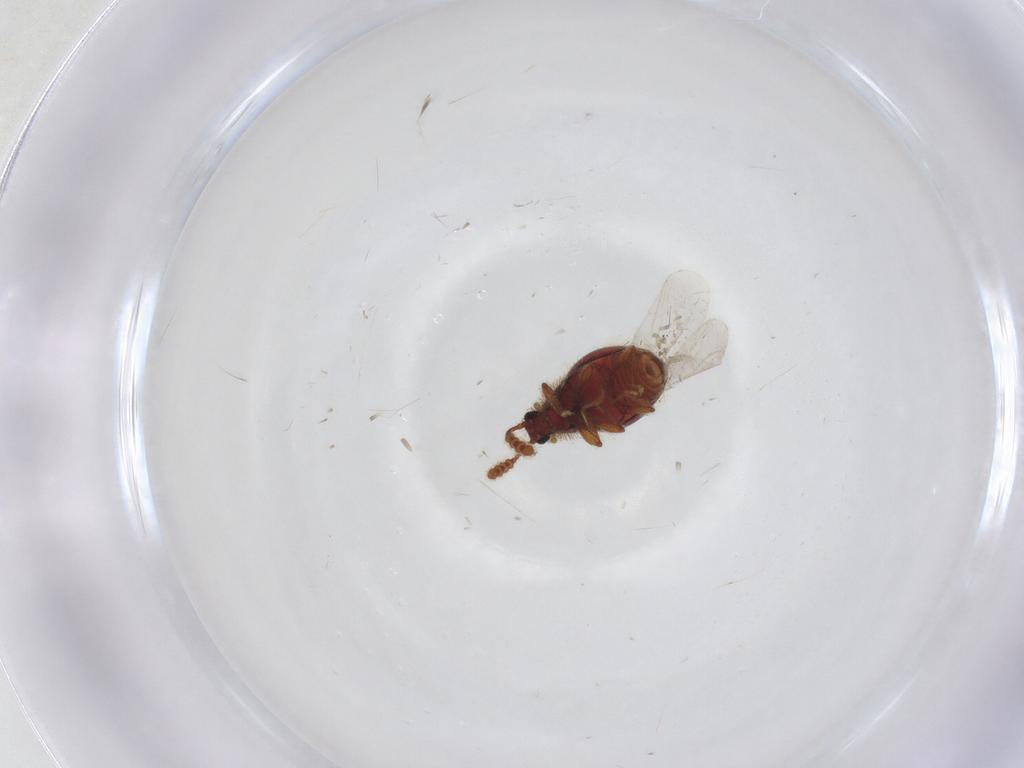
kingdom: Animalia
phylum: Arthropoda
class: Insecta
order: Coleoptera
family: Staphylinidae
